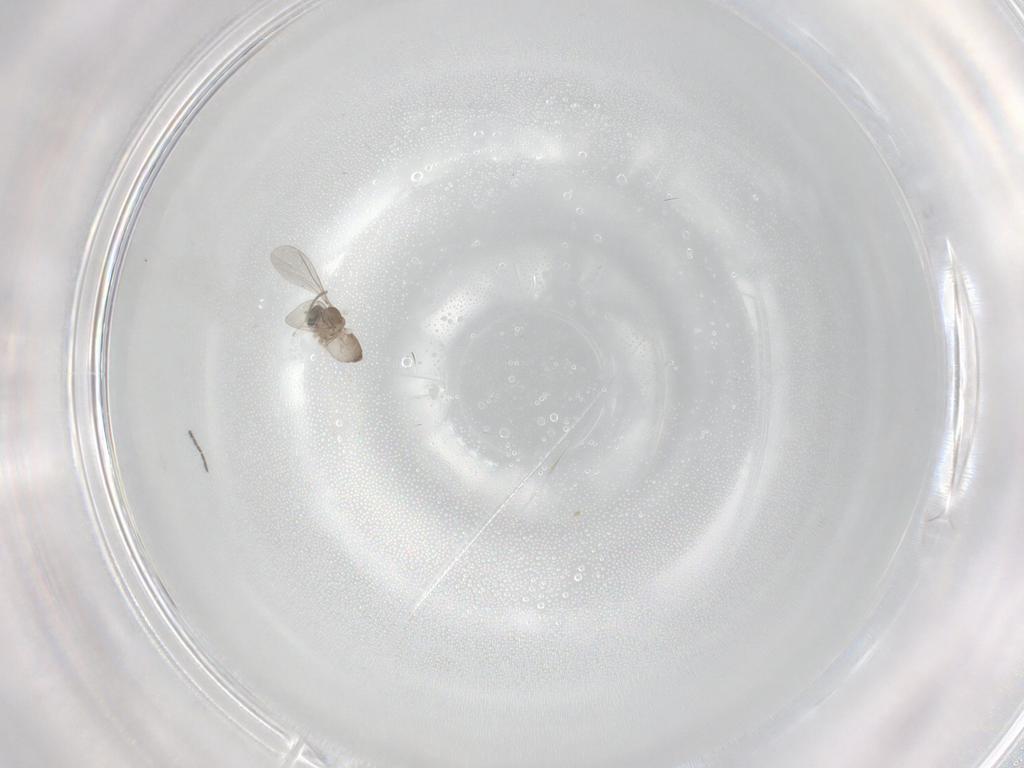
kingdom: Animalia
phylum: Arthropoda
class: Insecta
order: Diptera
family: Cecidomyiidae
